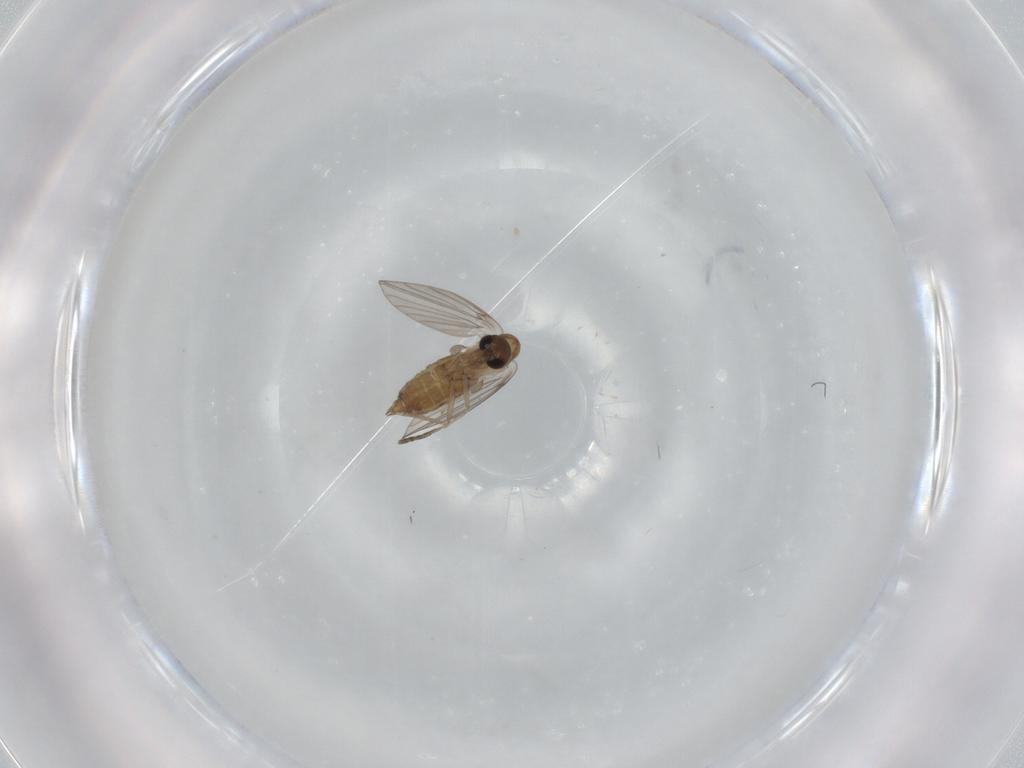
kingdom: Animalia
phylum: Arthropoda
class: Insecta
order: Diptera
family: Psychodidae
